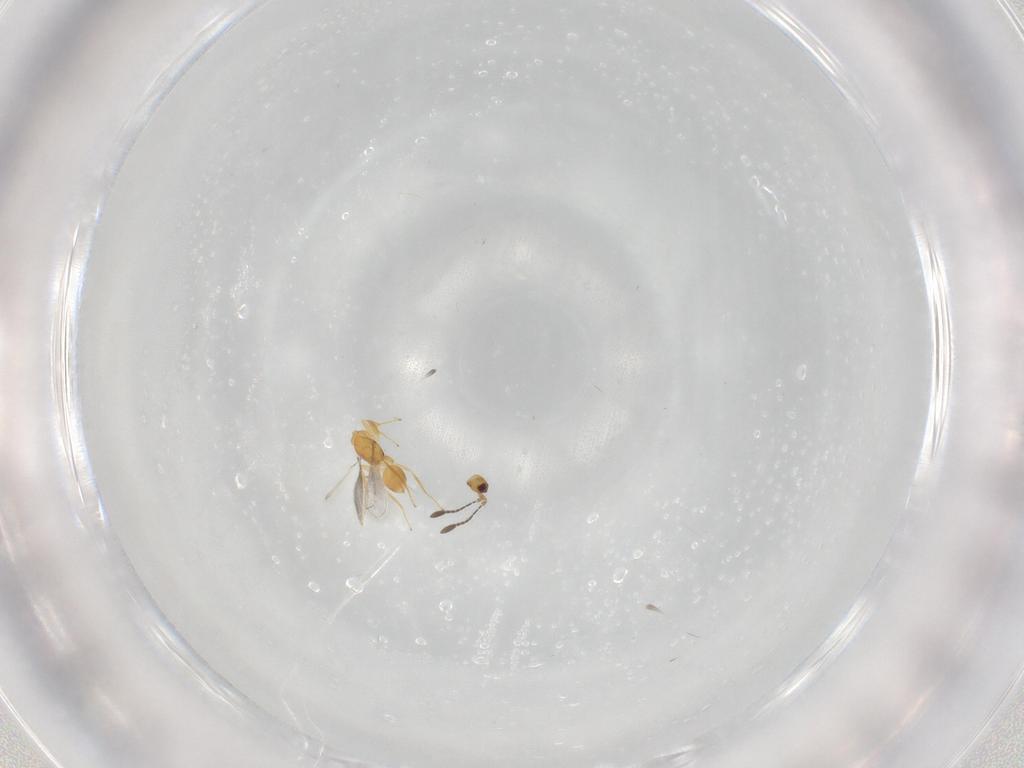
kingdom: Animalia
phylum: Arthropoda
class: Insecta
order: Hymenoptera
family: Mymaridae
